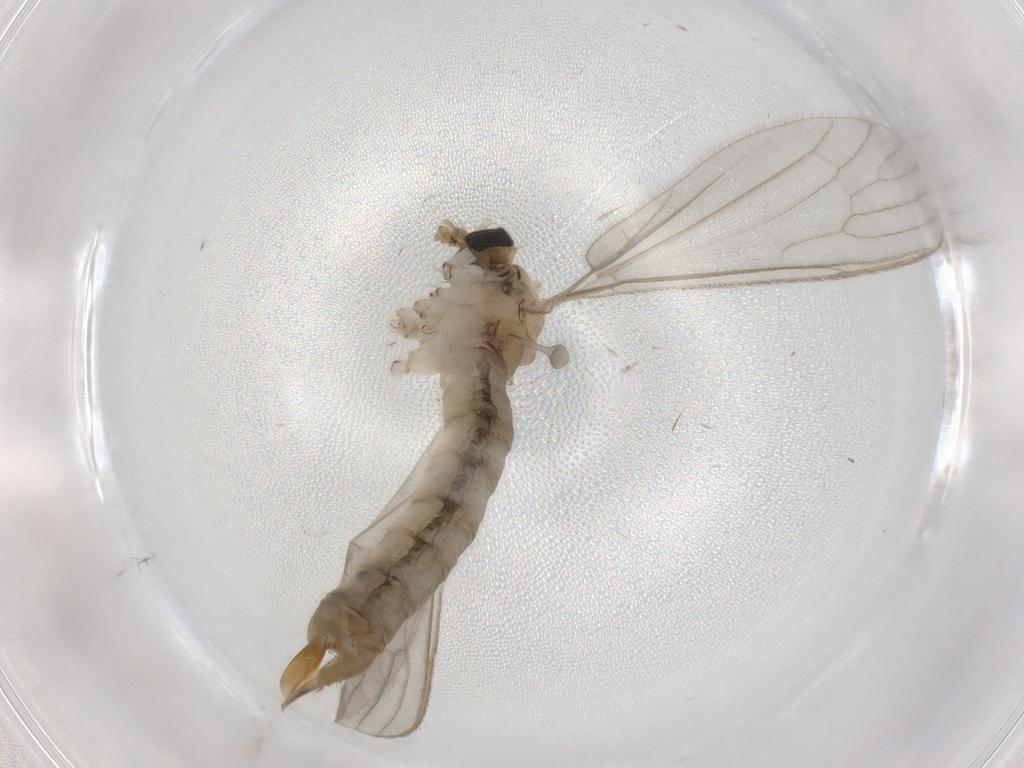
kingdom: Animalia
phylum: Arthropoda
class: Insecta
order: Diptera
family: Limoniidae
